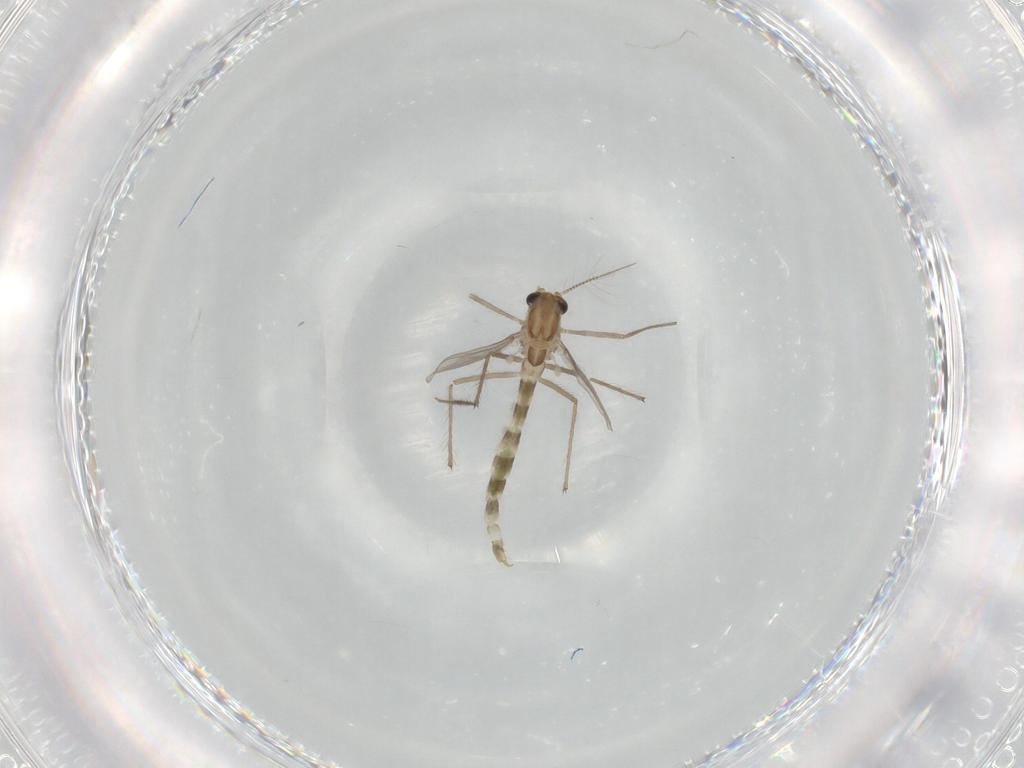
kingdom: Animalia
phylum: Arthropoda
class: Insecta
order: Diptera
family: Chironomidae
